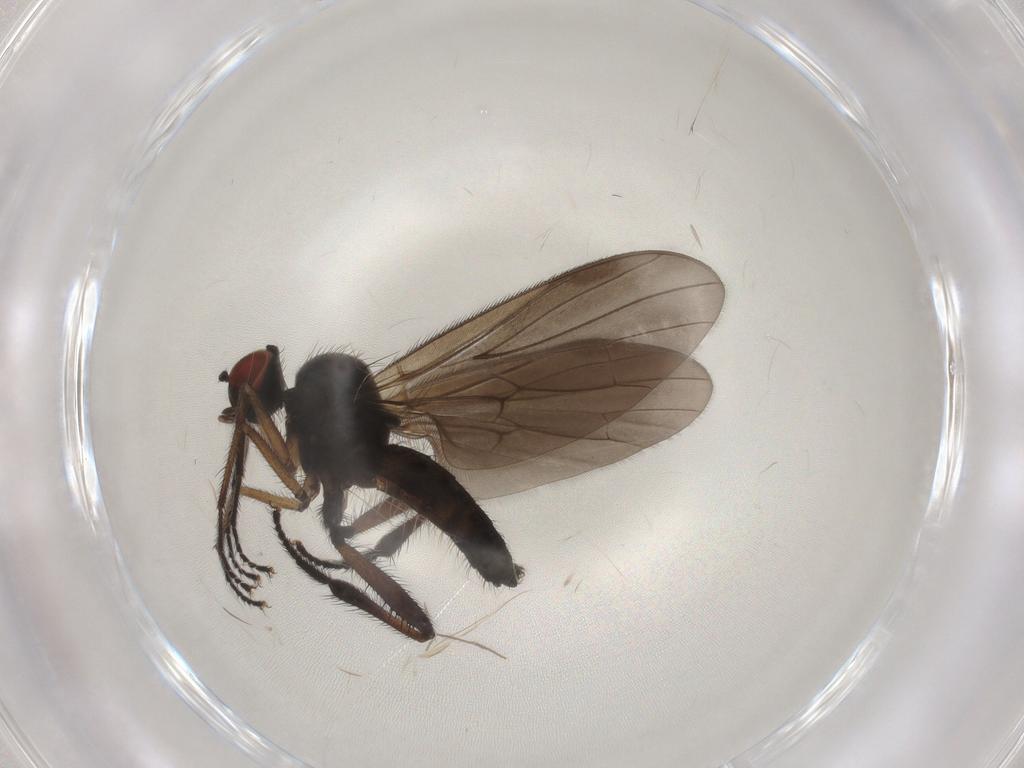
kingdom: Animalia
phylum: Arthropoda
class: Insecta
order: Diptera
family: Chironomidae
